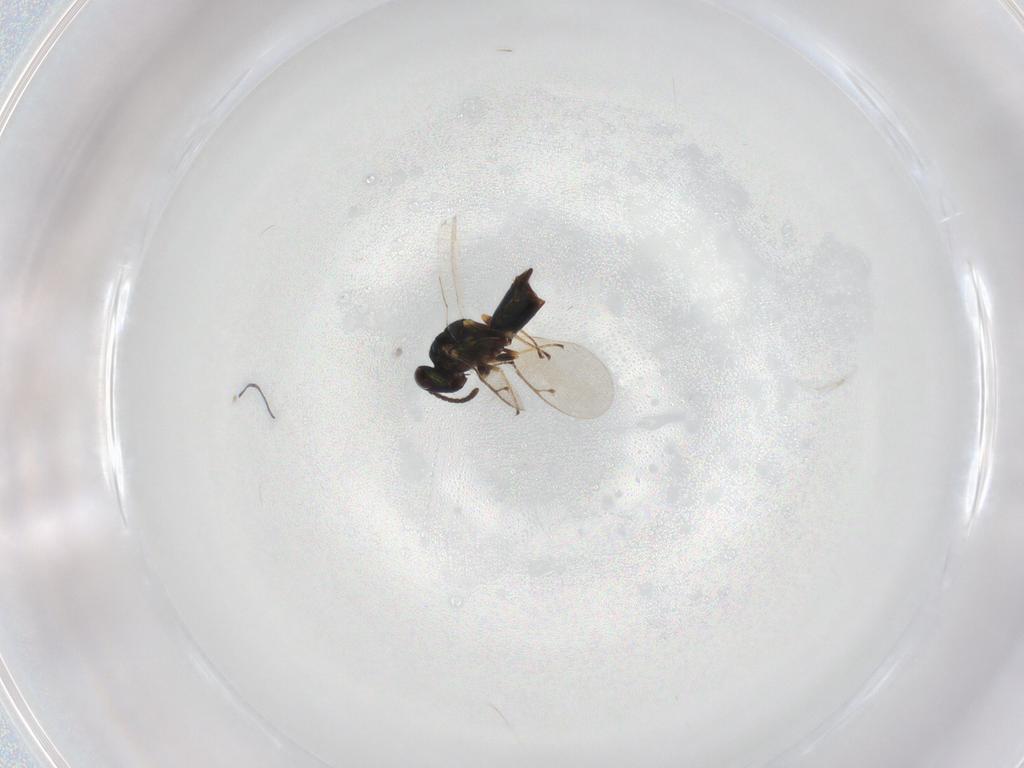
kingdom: Animalia
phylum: Arthropoda
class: Insecta
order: Hymenoptera
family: Pteromalidae
